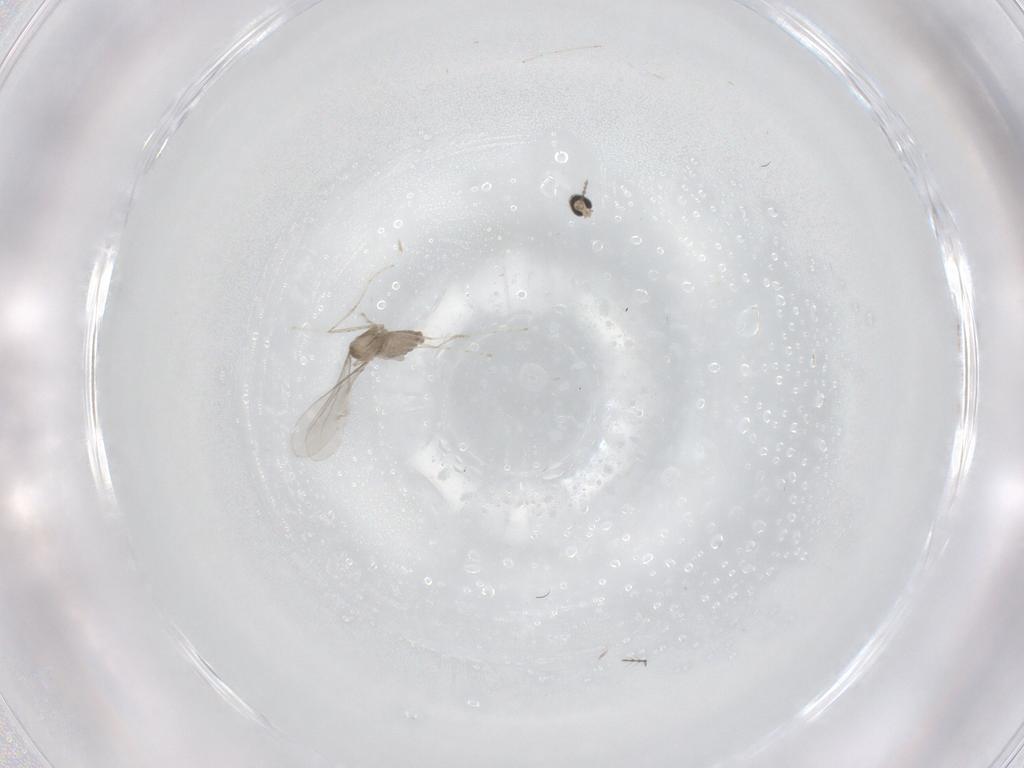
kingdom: Animalia
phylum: Arthropoda
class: Insecta
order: Diptera
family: Cecidomyiidae
